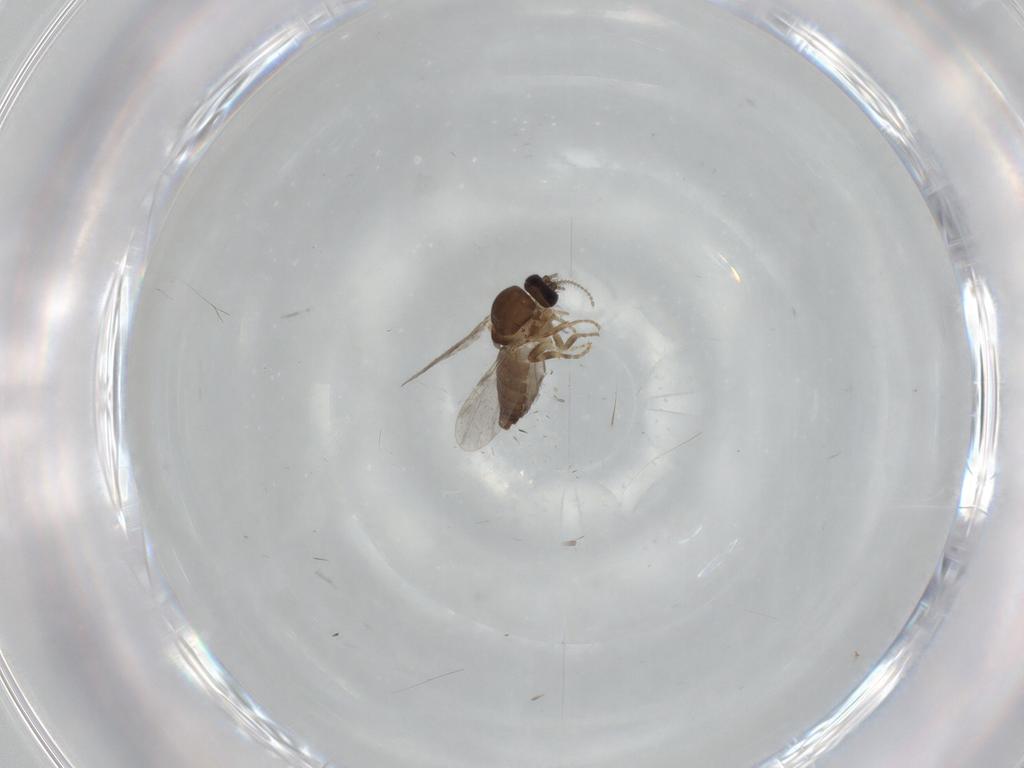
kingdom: Animalia
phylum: Arthropoda
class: Insecta
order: Diptera
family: Ceratopogonidae
